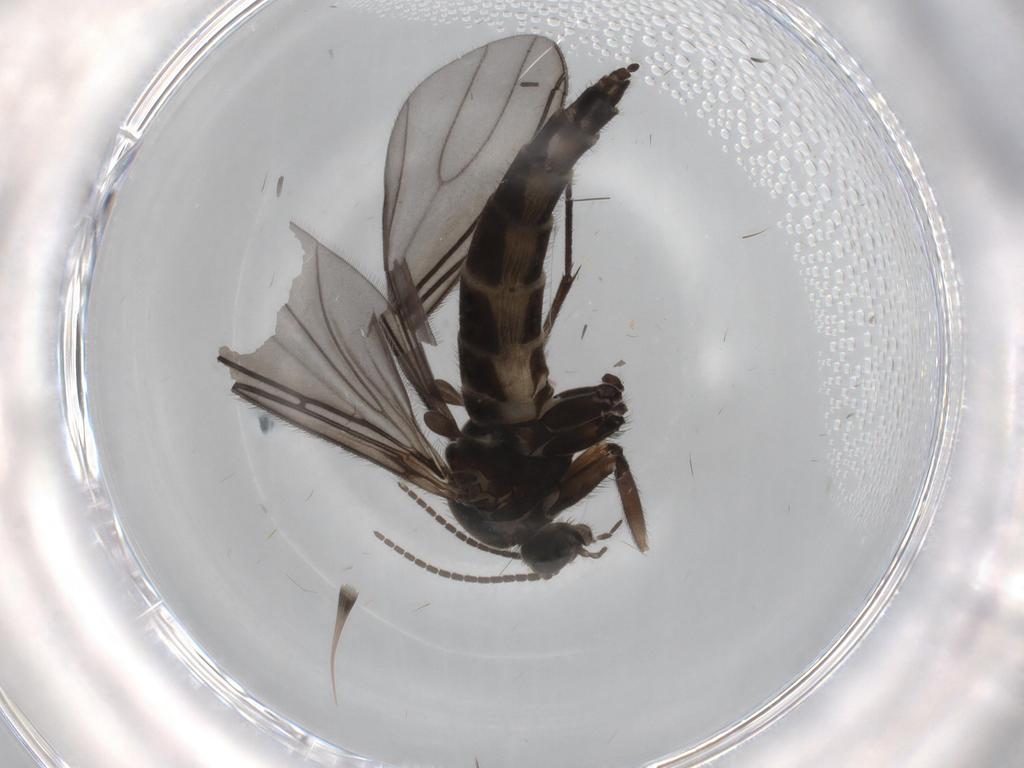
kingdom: Animalia
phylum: Arthropoda
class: Insecta
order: Diptera
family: Sciaridae
